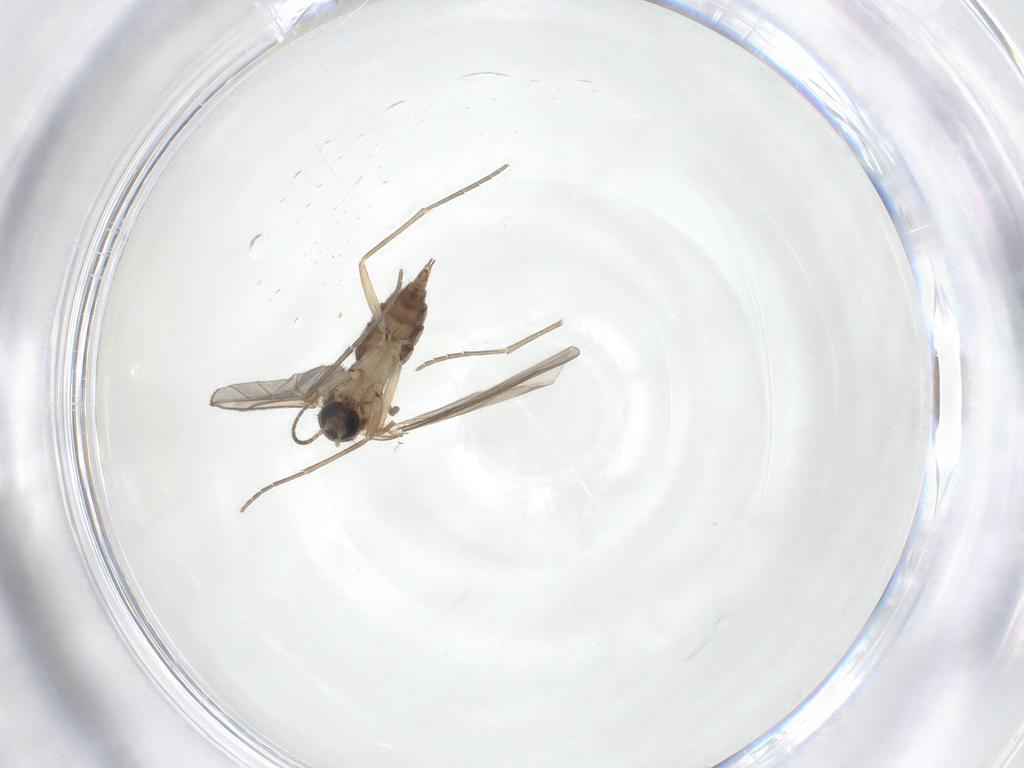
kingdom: Animalia
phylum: Arthropoda
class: Insecta
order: Diptera
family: Sciaridae
